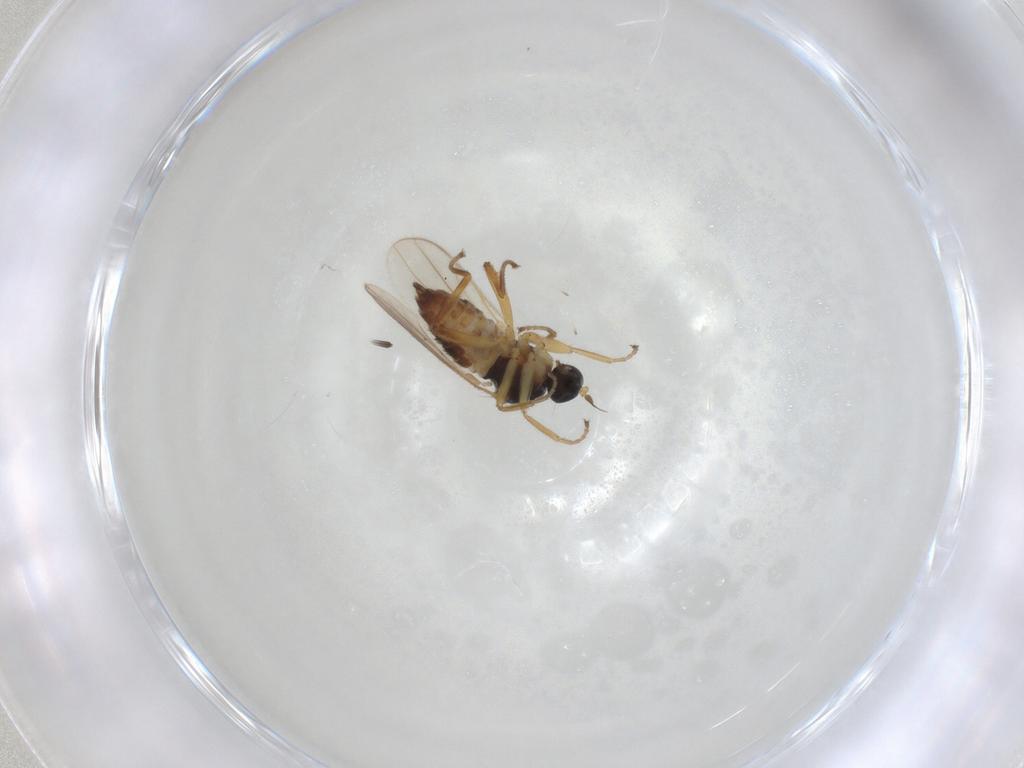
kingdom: Animalia
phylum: Arthropoda
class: Insecta
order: Diptera
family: Hybotidae
